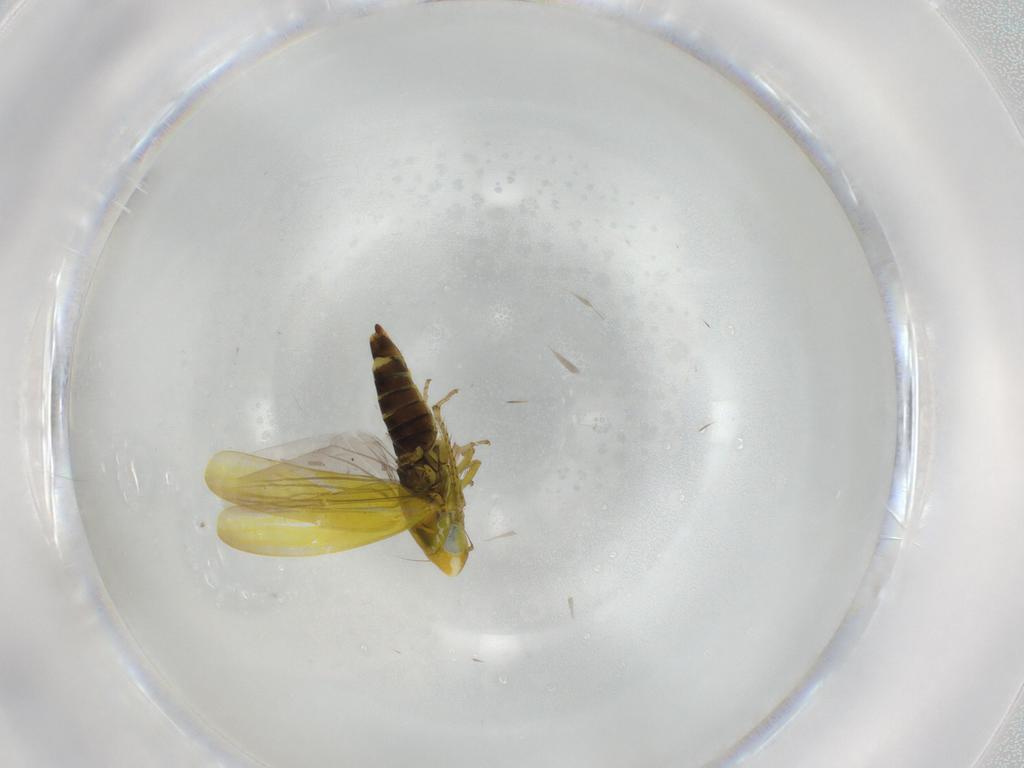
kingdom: Animalia
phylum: Arthropoda
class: Insecta
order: Hemiptera
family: Cicadellidae
